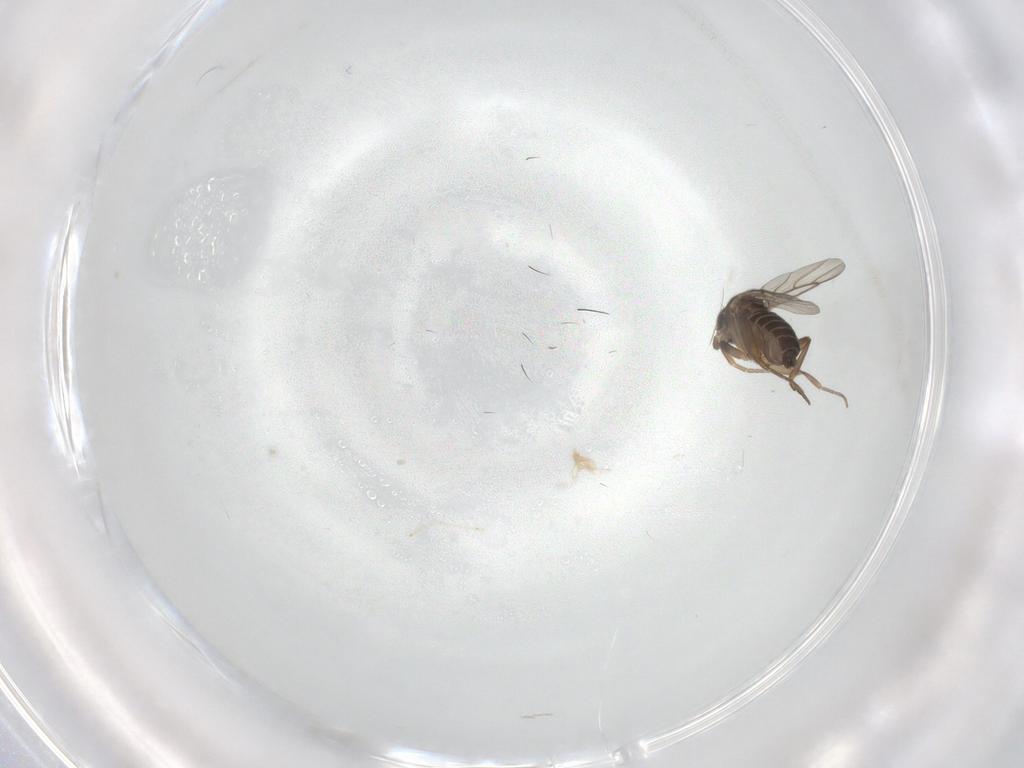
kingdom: Animalia
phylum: Arthropoda
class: Insecta
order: Diptera
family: Phoridae
